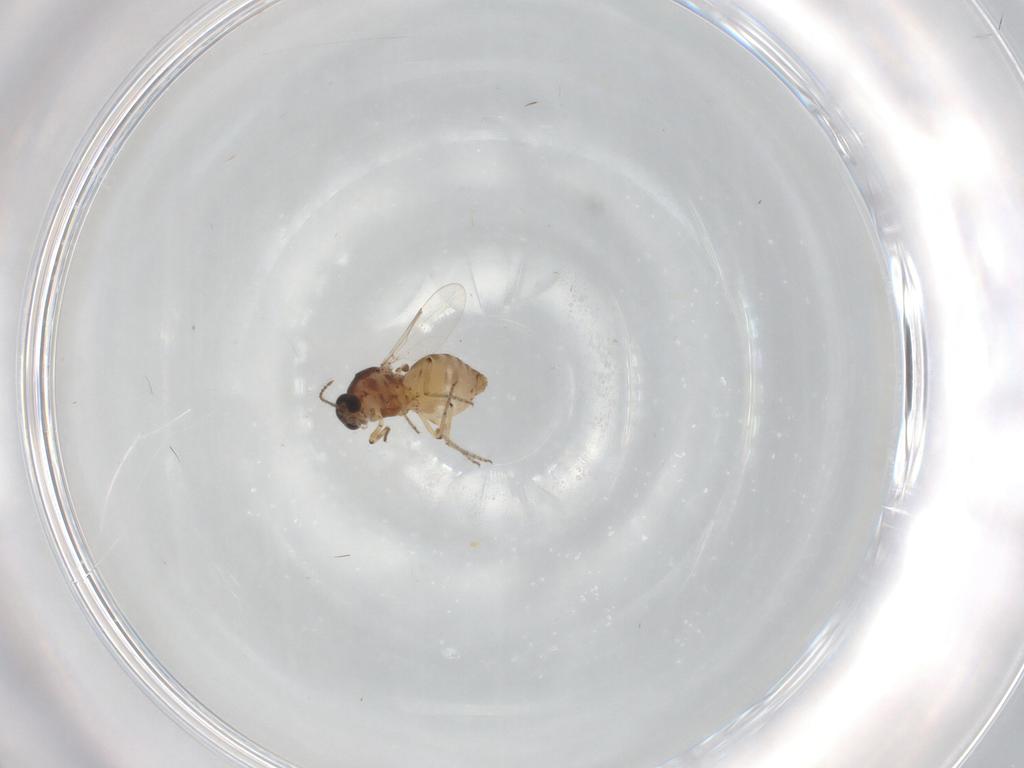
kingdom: Animalia
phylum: Arthropoda
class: Insecta
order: Diptera
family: Ceratopogonidae
